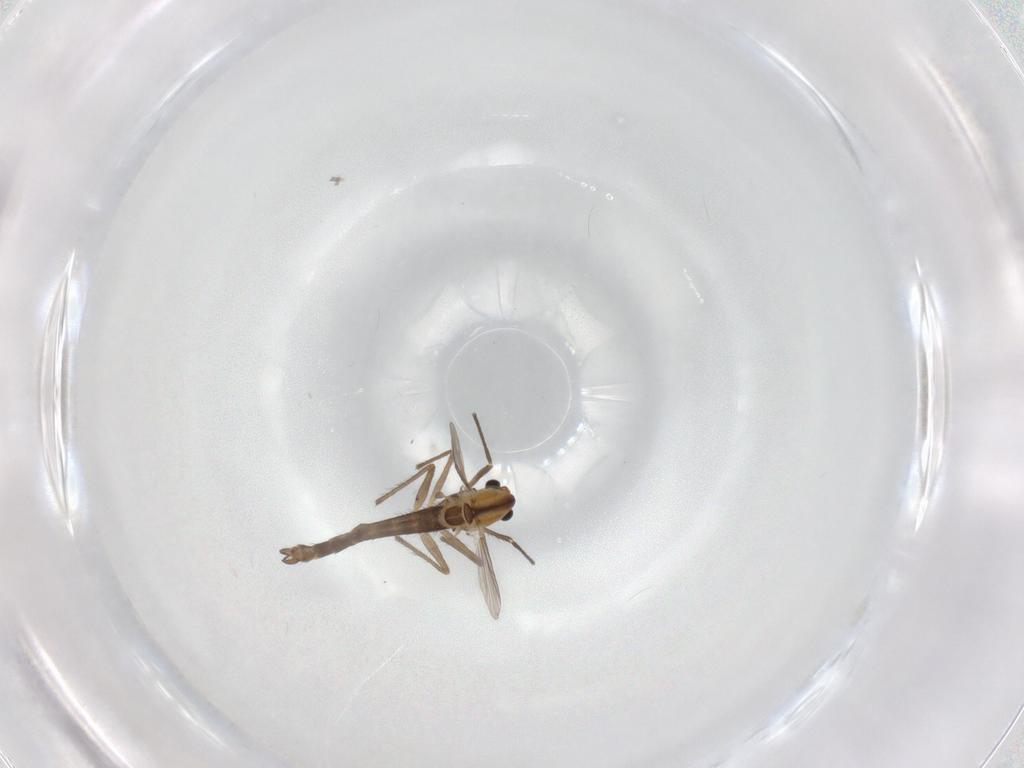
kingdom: Animalia
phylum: Arthropoda
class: Insecta
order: Diptera
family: Chironomidae
